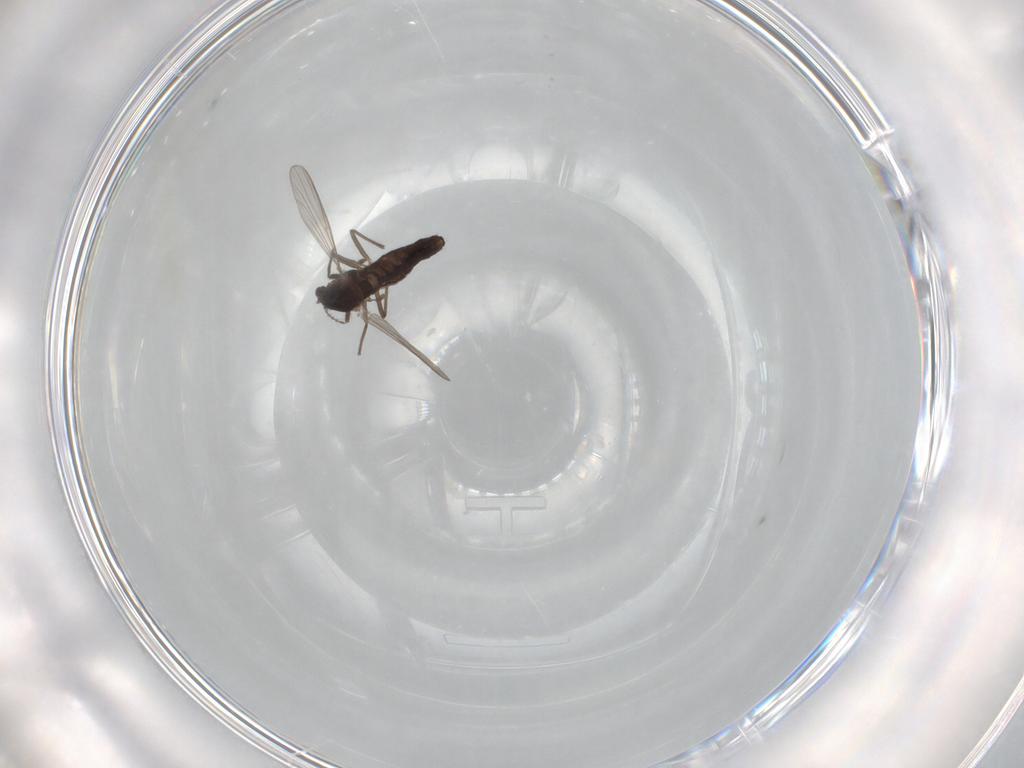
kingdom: Animalia
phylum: Arthropoda
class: Insecta
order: Diptera
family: Chironomidae
